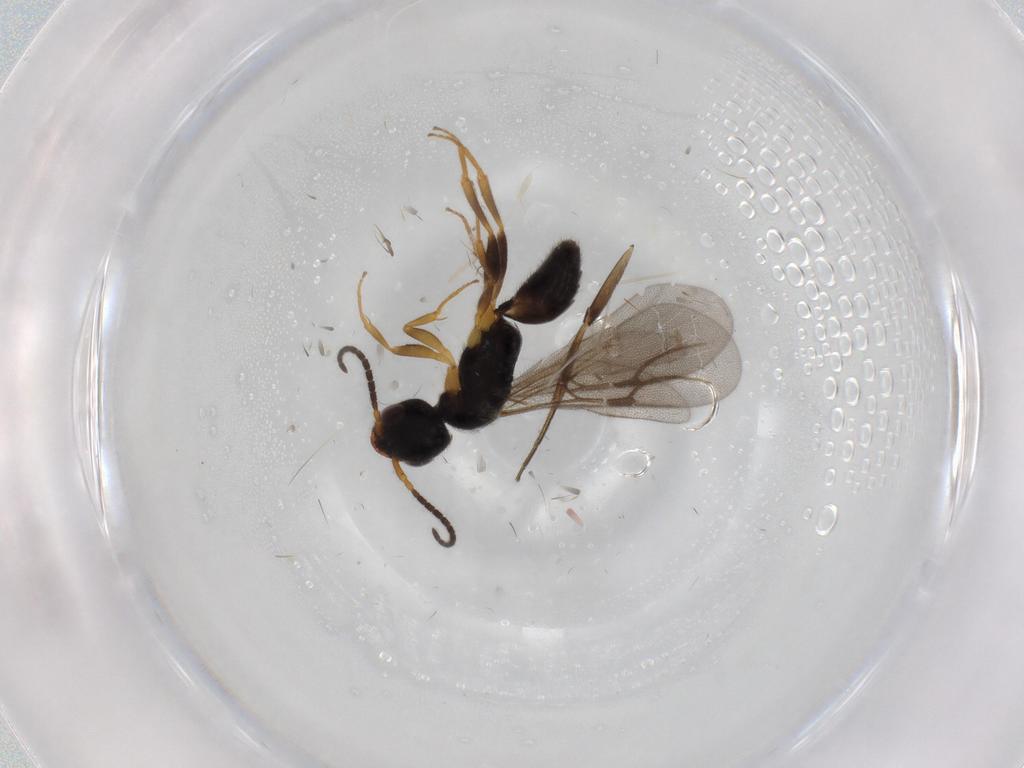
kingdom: Animalia
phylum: Arthropoda
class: Insecta
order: Hymenoptera
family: Bethylidae
